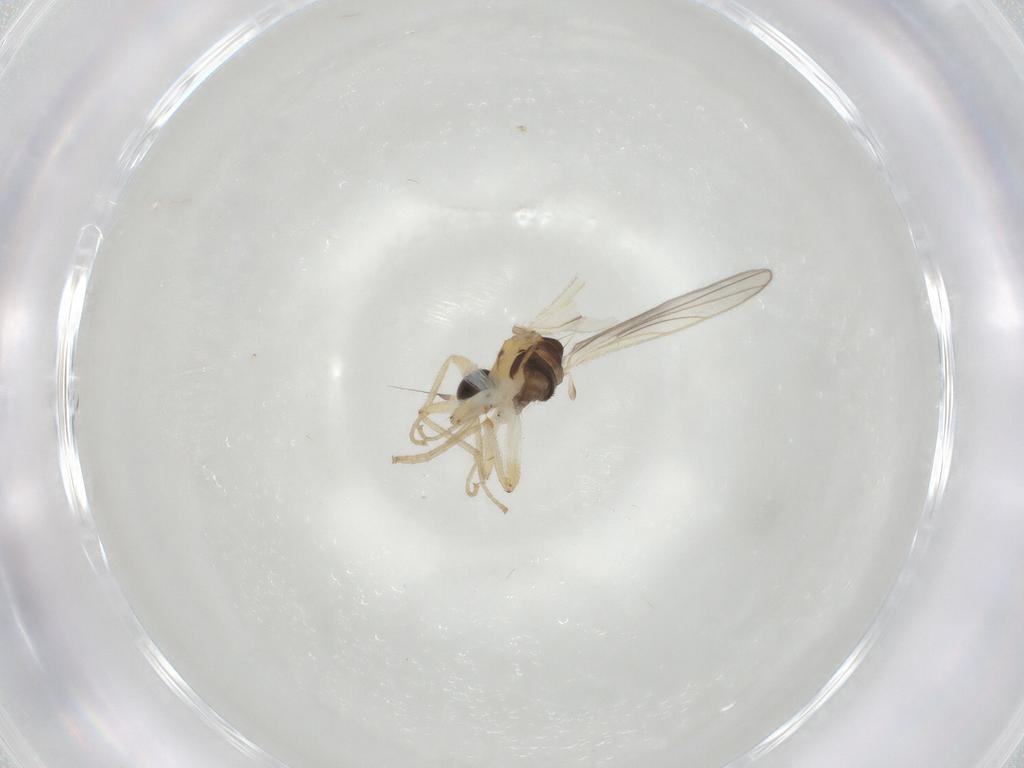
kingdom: Animalia
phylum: Arthropoda
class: Insecta
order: Diptera
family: Hybotidae
